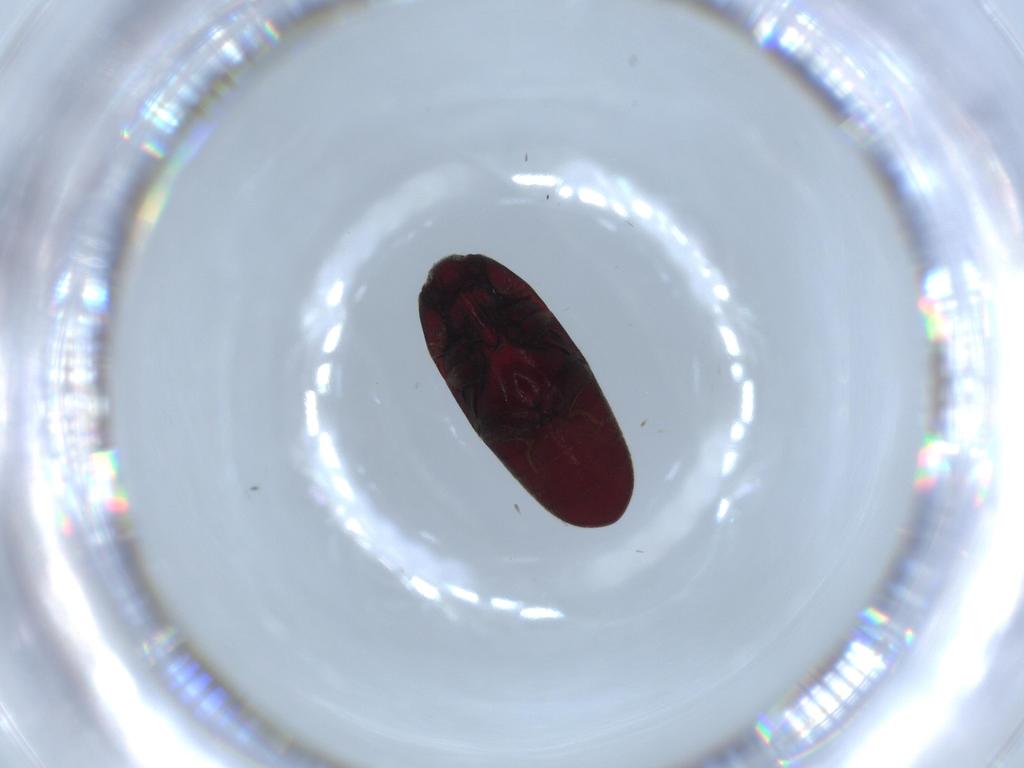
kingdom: Animalia
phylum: Arthropoda
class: Insecta
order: Coleoptera
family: Throscidae
